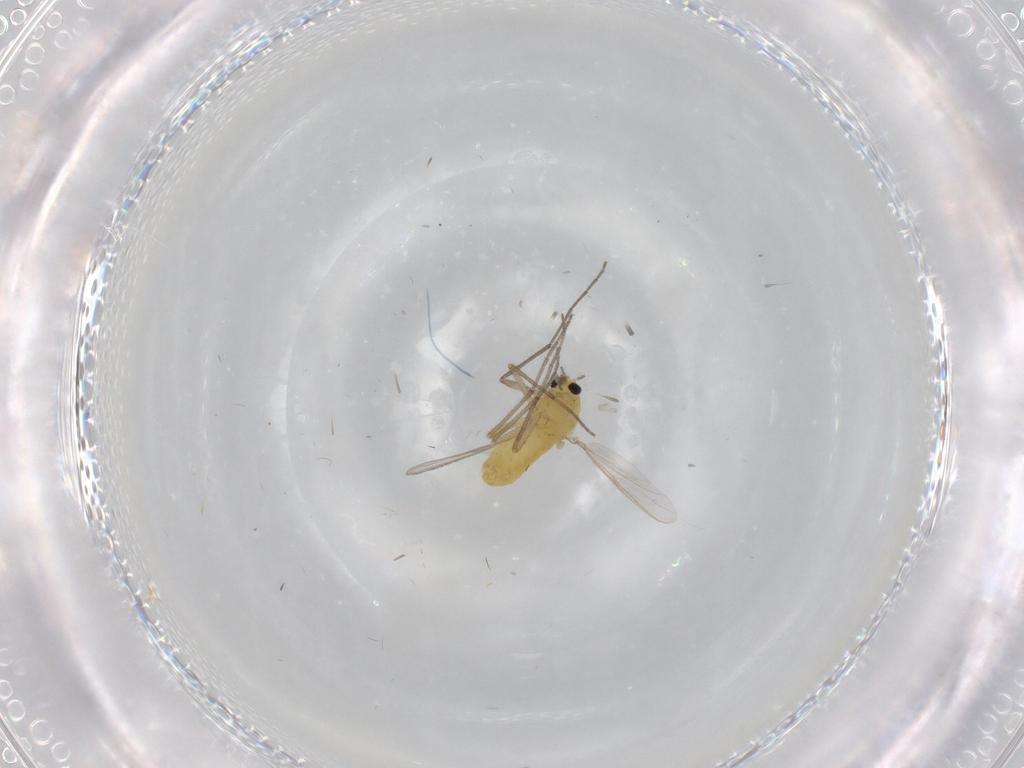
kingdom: Animalia
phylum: Arthropoda
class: Insecta
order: Diptera
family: Chironomidae
